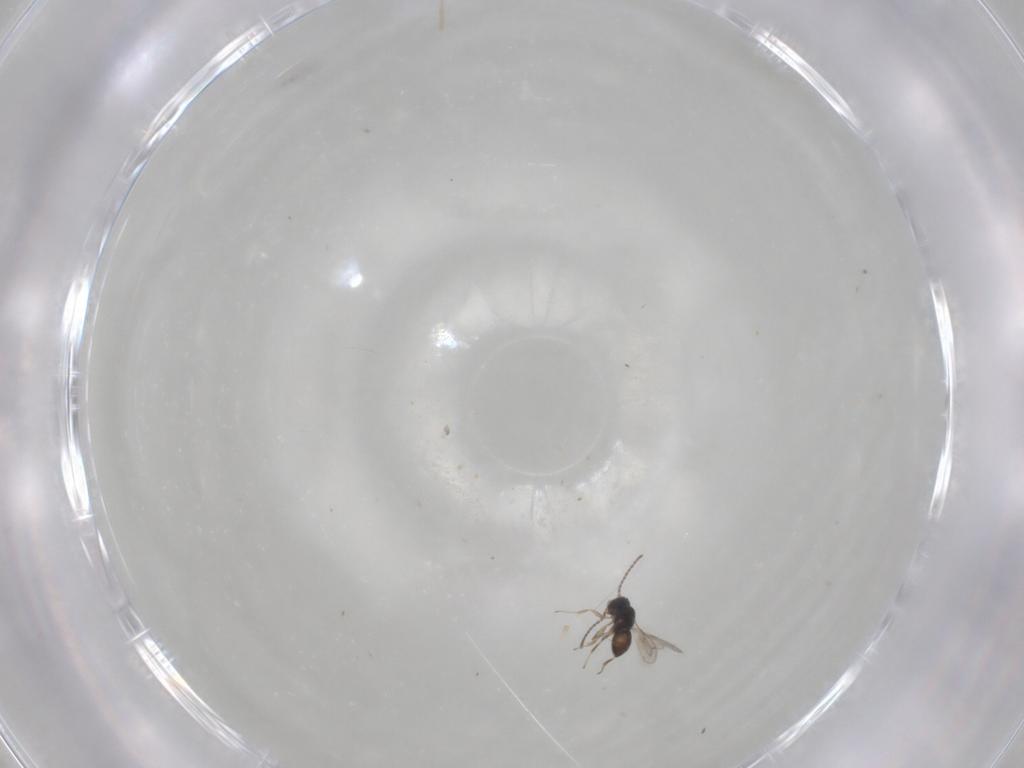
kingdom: Animalia
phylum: Arthropoda
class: Insecta
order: Hymenoptera
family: Scelionidae
